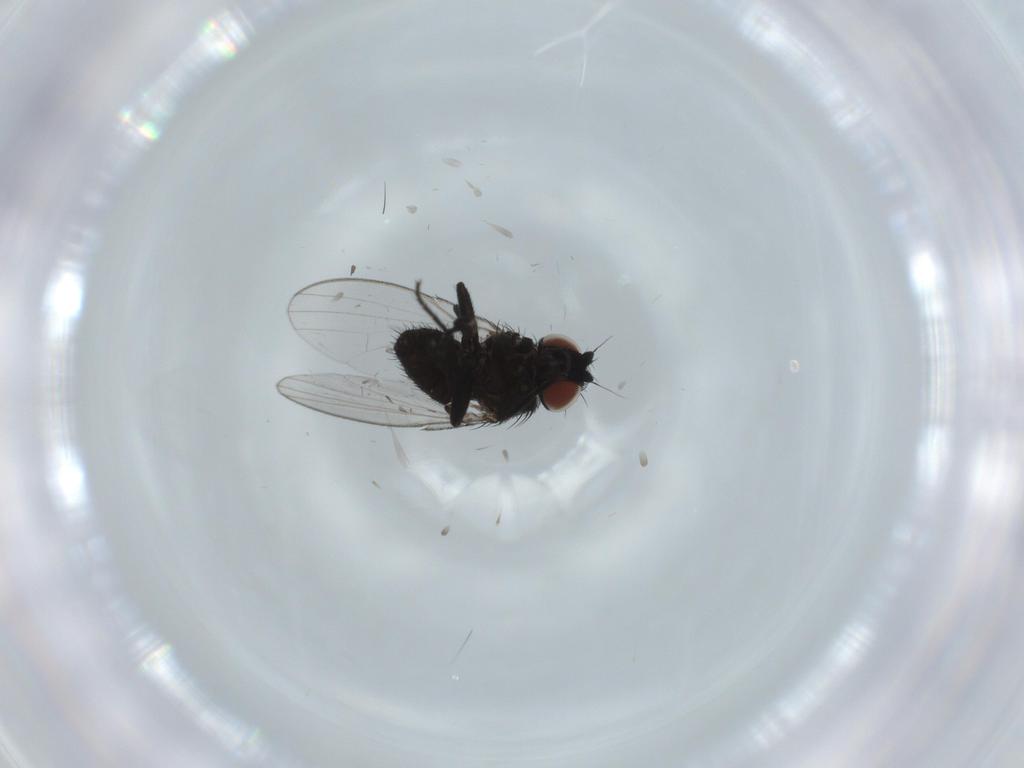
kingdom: Animalia
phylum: Arthropoda
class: Insecta
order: Diptera
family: Milichiidae
